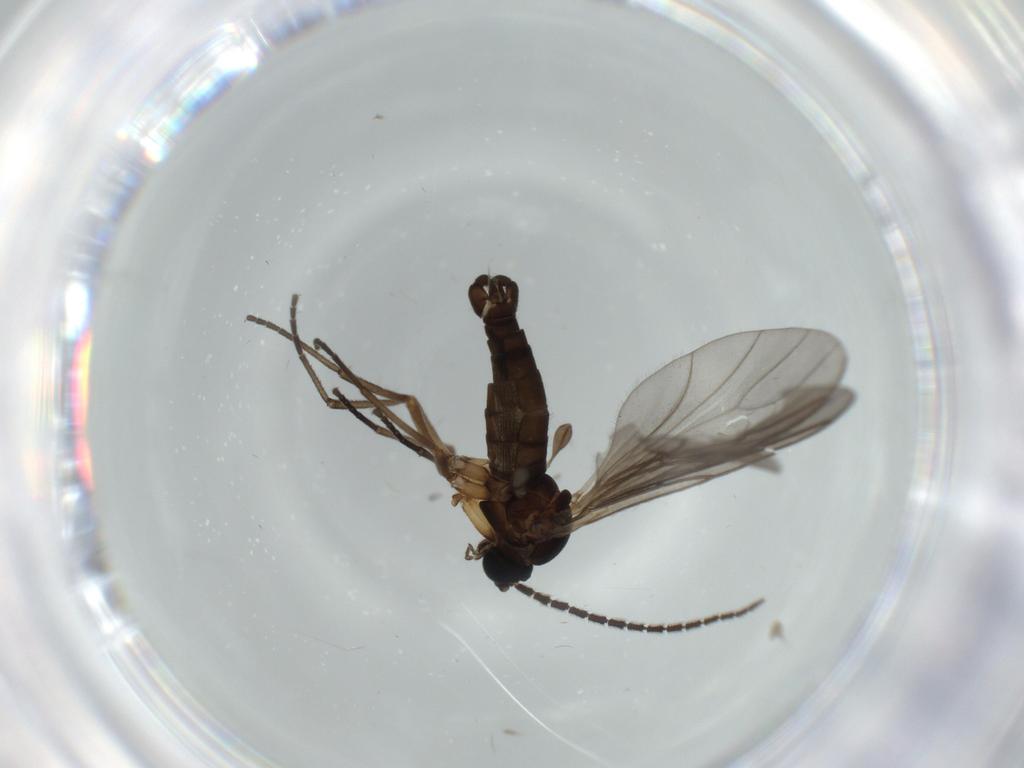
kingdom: Animalia
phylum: Arthropoda
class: Insecta
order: Diptera
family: Sciaridae
